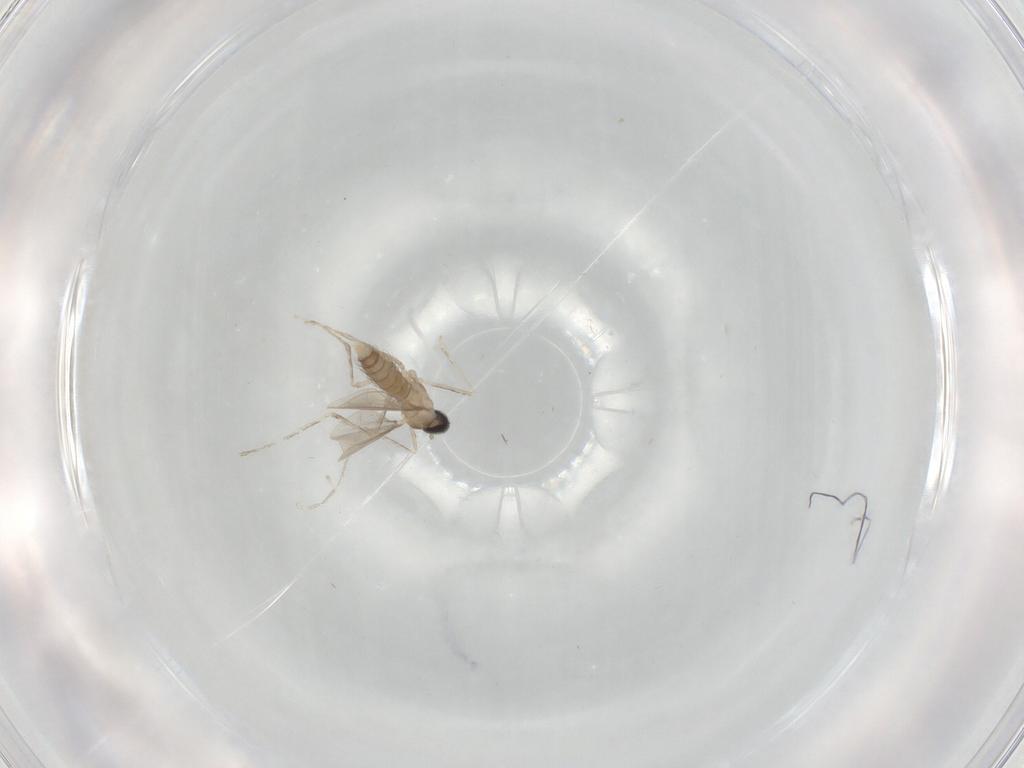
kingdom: Animalia
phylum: Arthropoda
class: Insecta
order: Diptera
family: Cecidomyiidae
